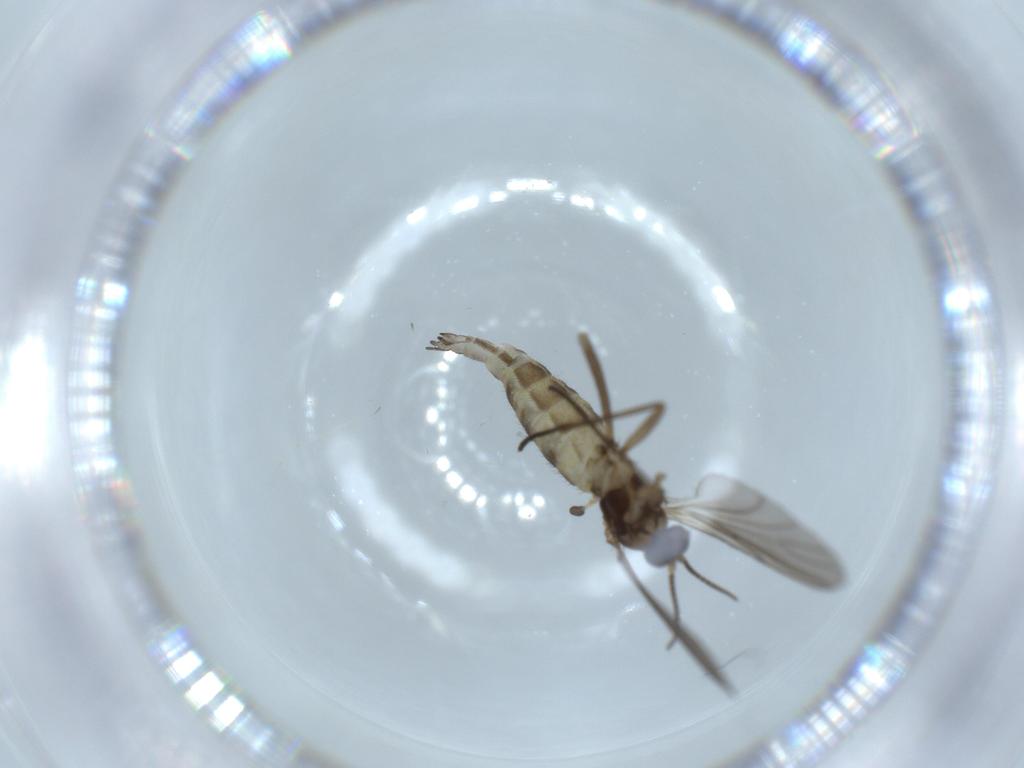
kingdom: Animalia
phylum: Arthropoda
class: Insecta
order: Diptera
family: Sciaridae
